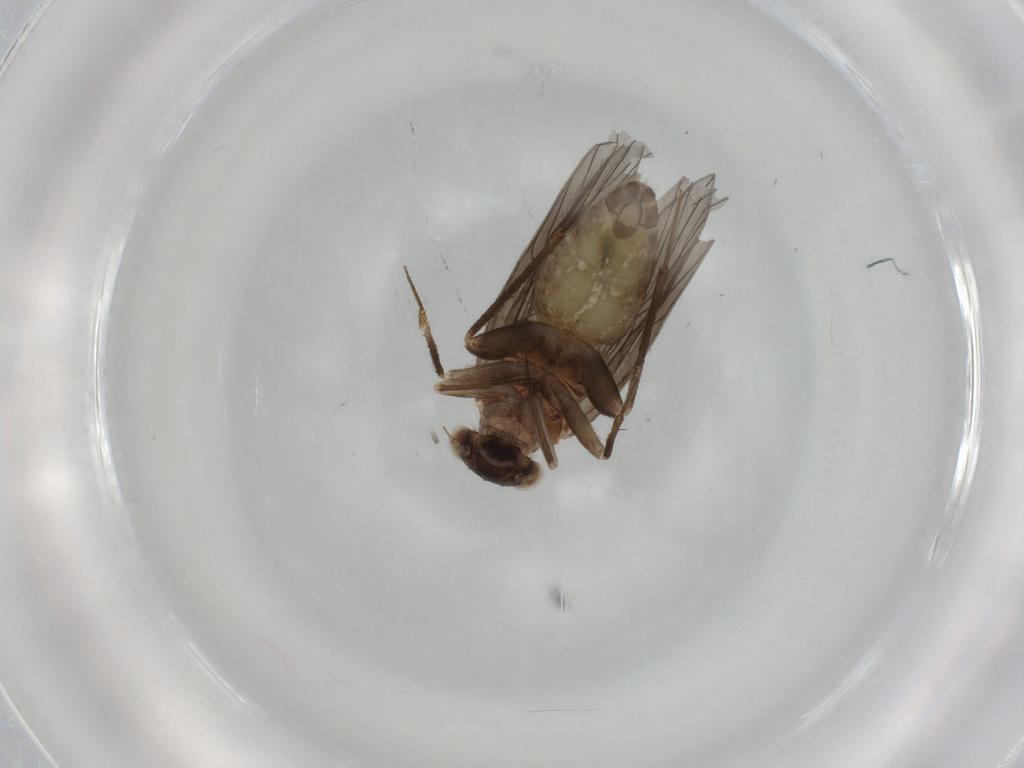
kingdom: Animalia
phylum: Arthropoda
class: Insecta
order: Psocodea
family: Lepidopsocidae
